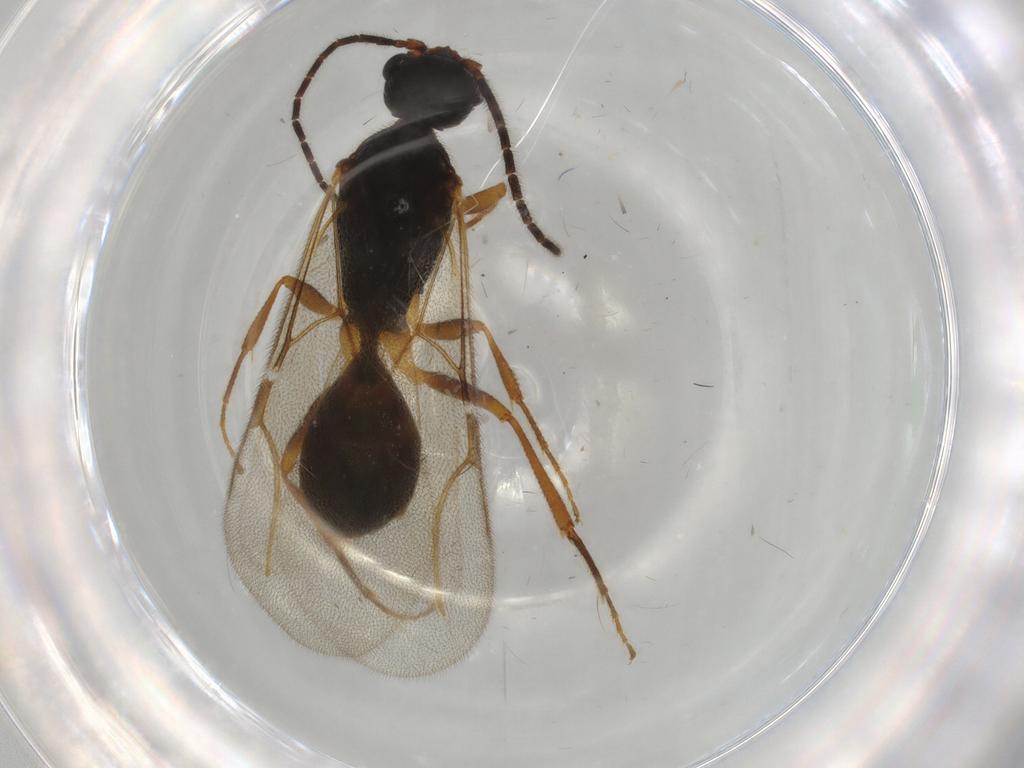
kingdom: Animalia
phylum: Arthropoda
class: Insecta
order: Hymenoptera
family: Bethylidae
